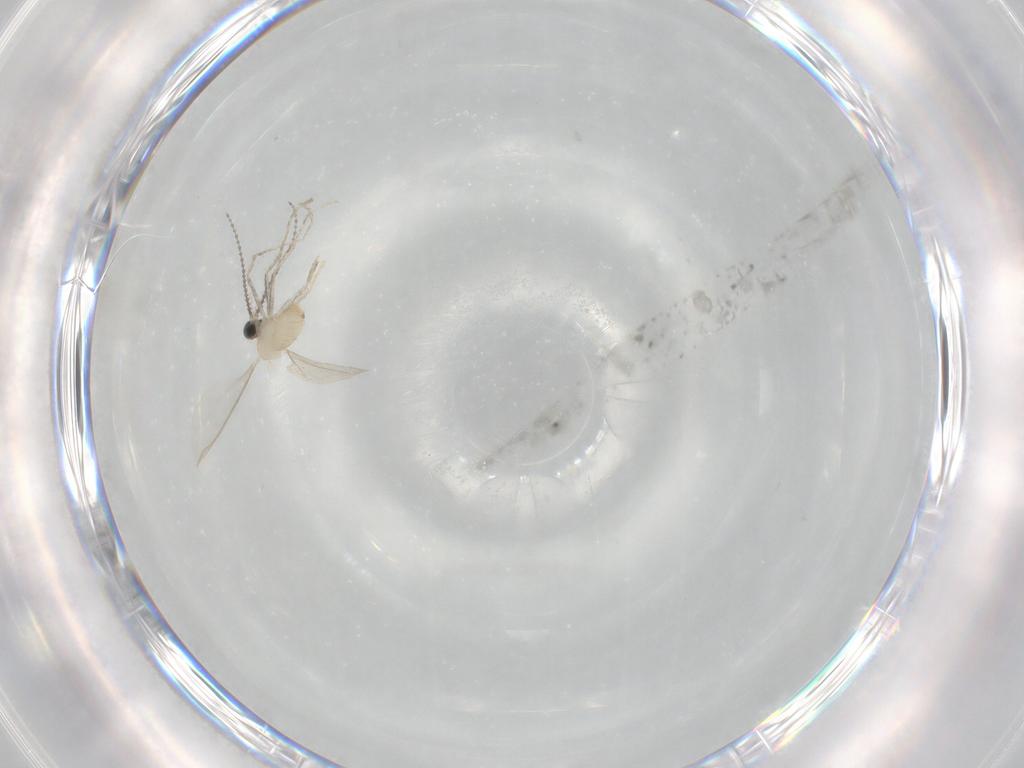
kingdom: Animalia
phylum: Arthropoda
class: Insecta
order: Diptera
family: Cecidomyiidae
